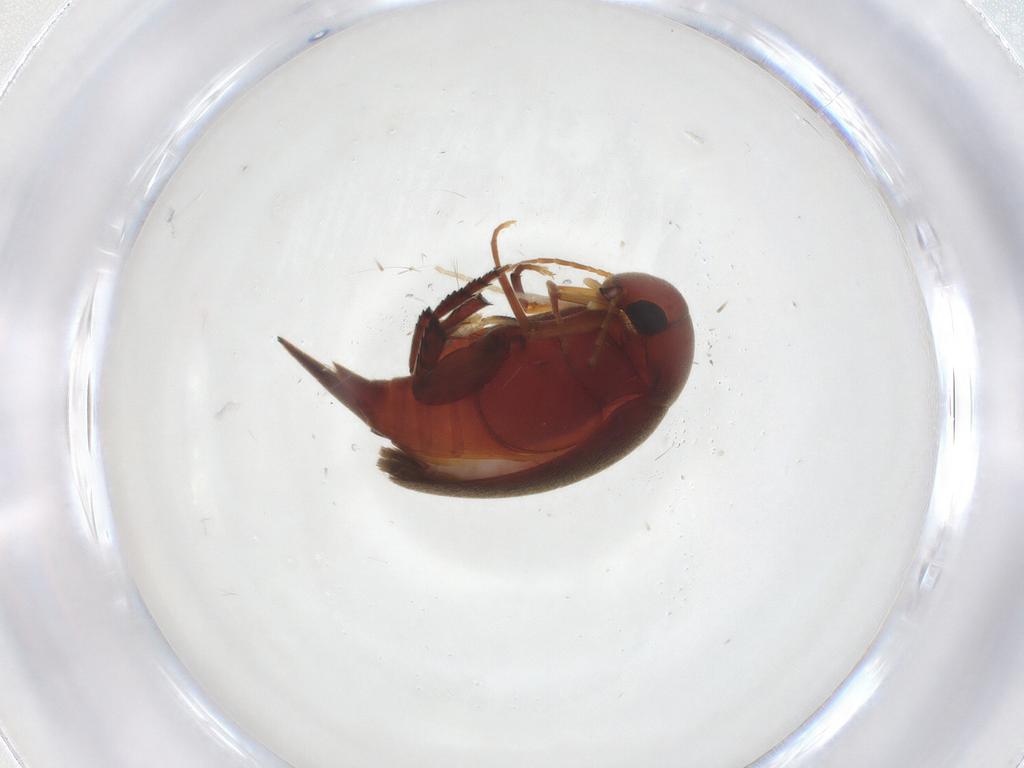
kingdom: Animalia
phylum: Arthropoda
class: Insecta
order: Coleoptera
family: Mordellidae
